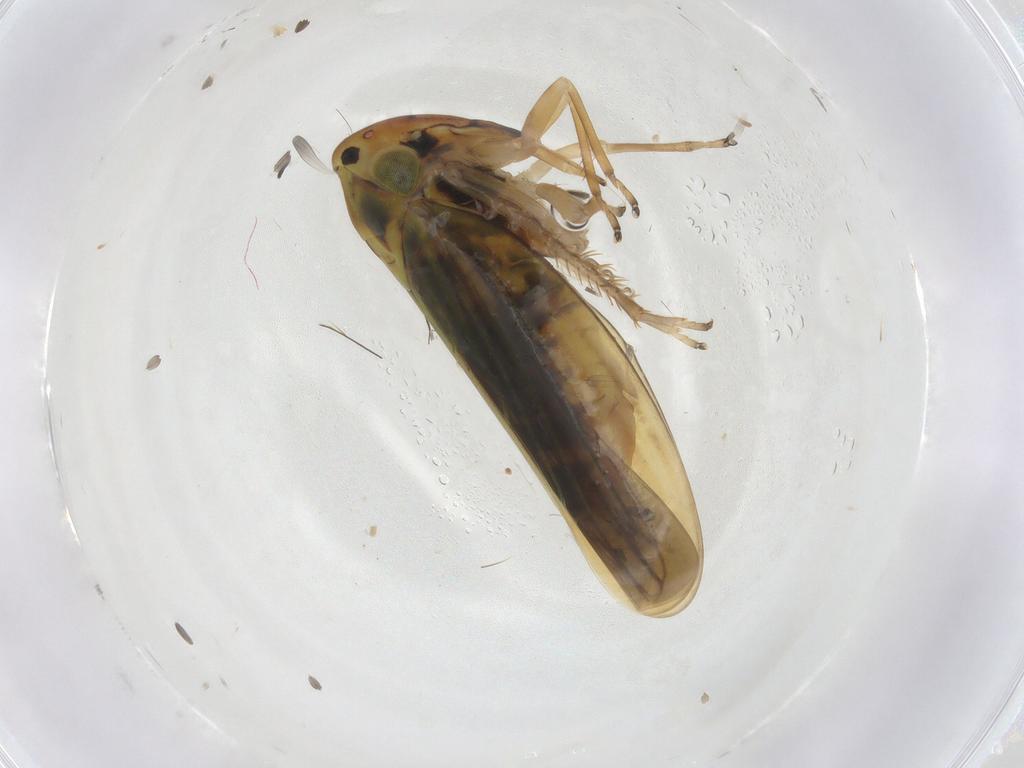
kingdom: Animalia
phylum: Arthropoda
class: Insecta
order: Hemiptera
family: Cicadellidae
